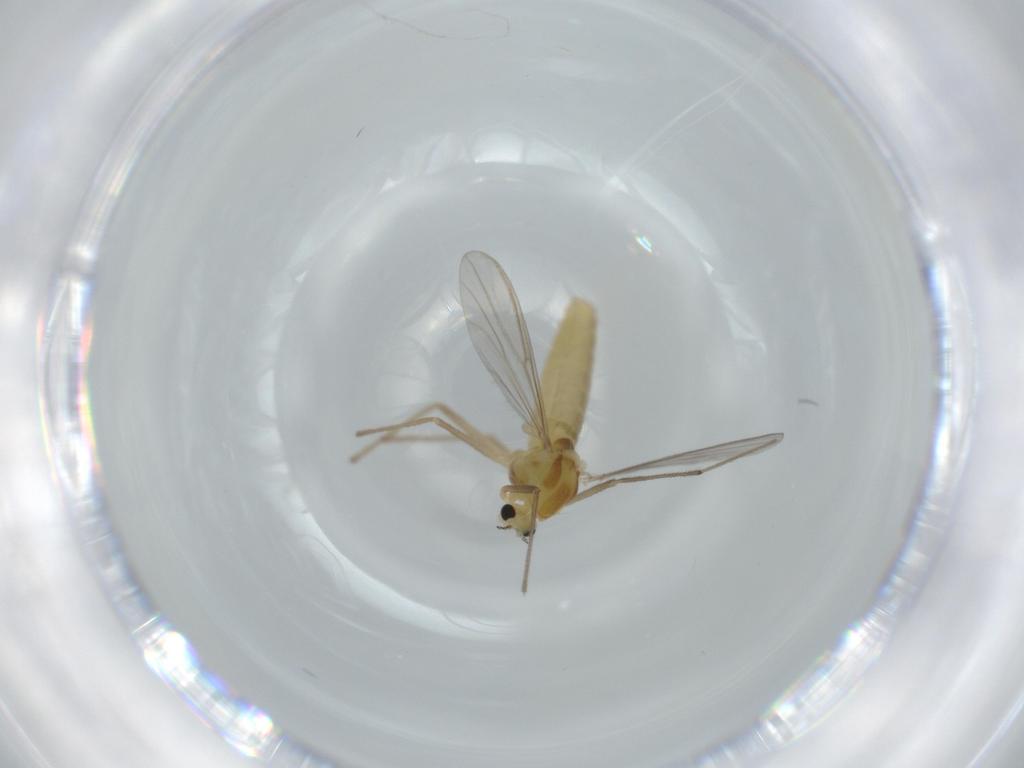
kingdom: Animalia
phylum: Arthropoda
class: Insecta
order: Diptera
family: Chironomidae
